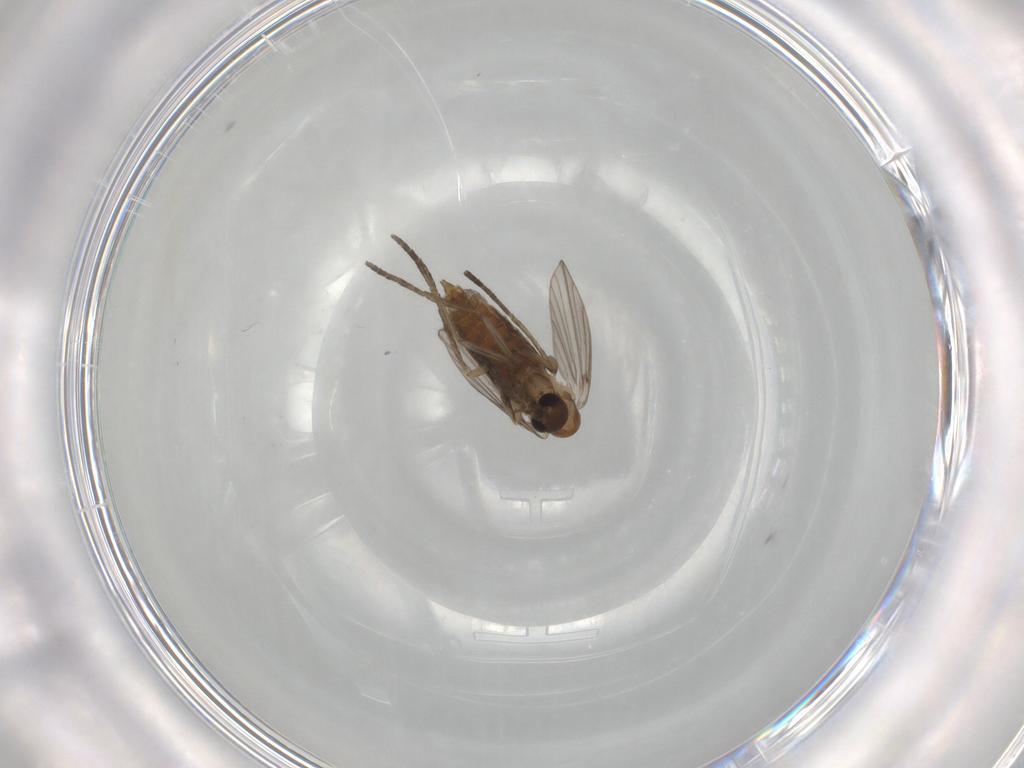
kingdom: Animalia
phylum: Arthropoda
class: Insecta
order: Diptera
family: Psychodidae
